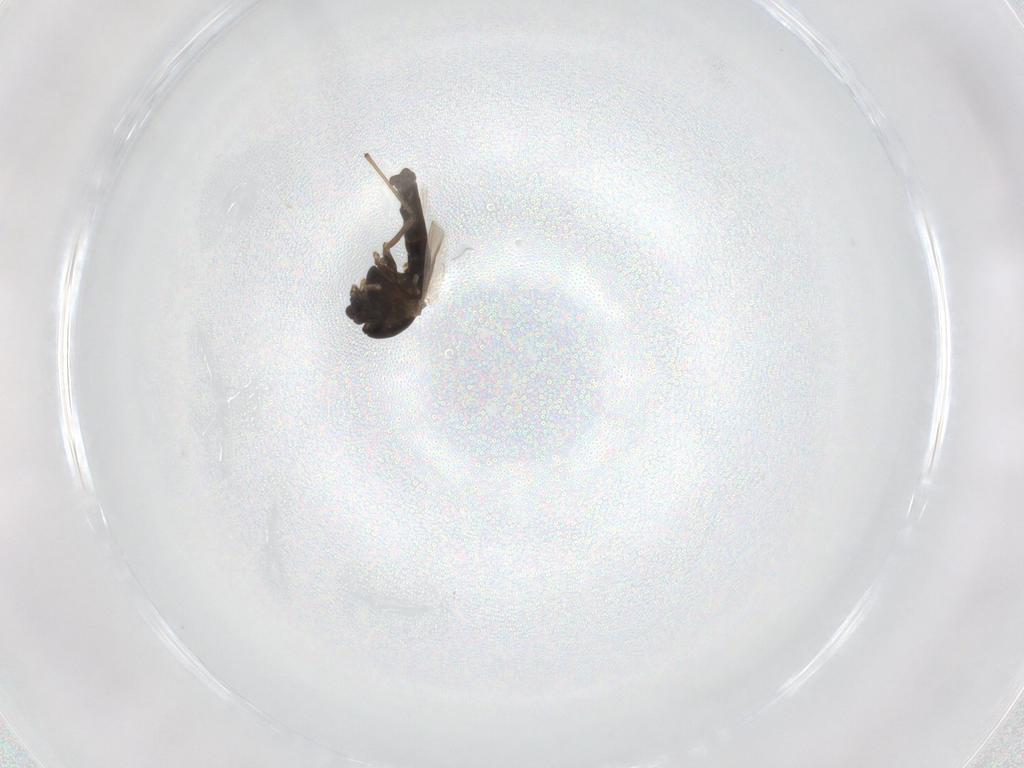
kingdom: Animalia
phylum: Arthropoda
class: Insecta
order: Diptera
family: Chironomidae
